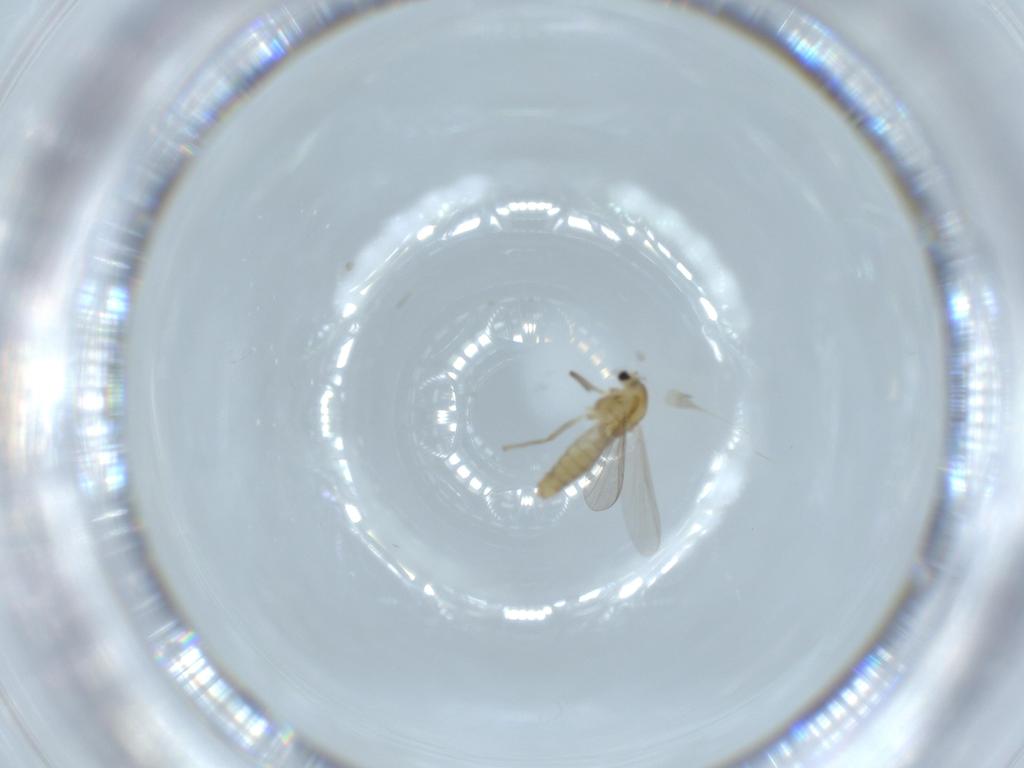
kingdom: Animalia
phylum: Arthropoda
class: Insecta
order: Diptera
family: Chironomidae
